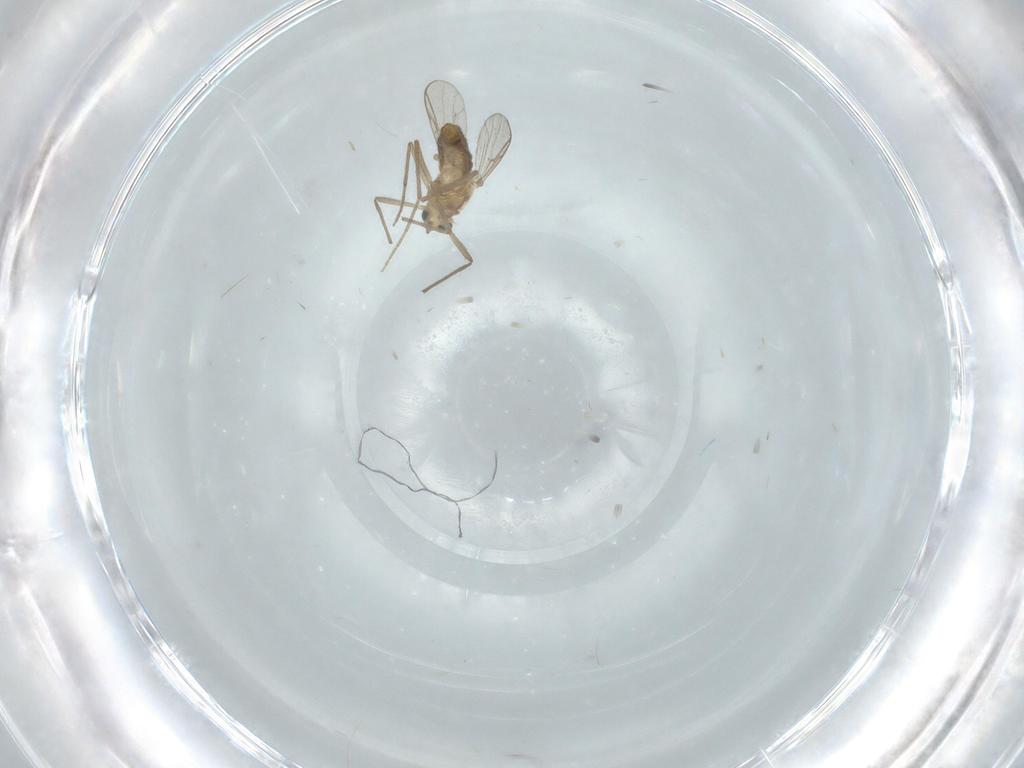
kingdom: Animalia
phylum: Arthropoda
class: Insecta
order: Diptera
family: Chironomidae
